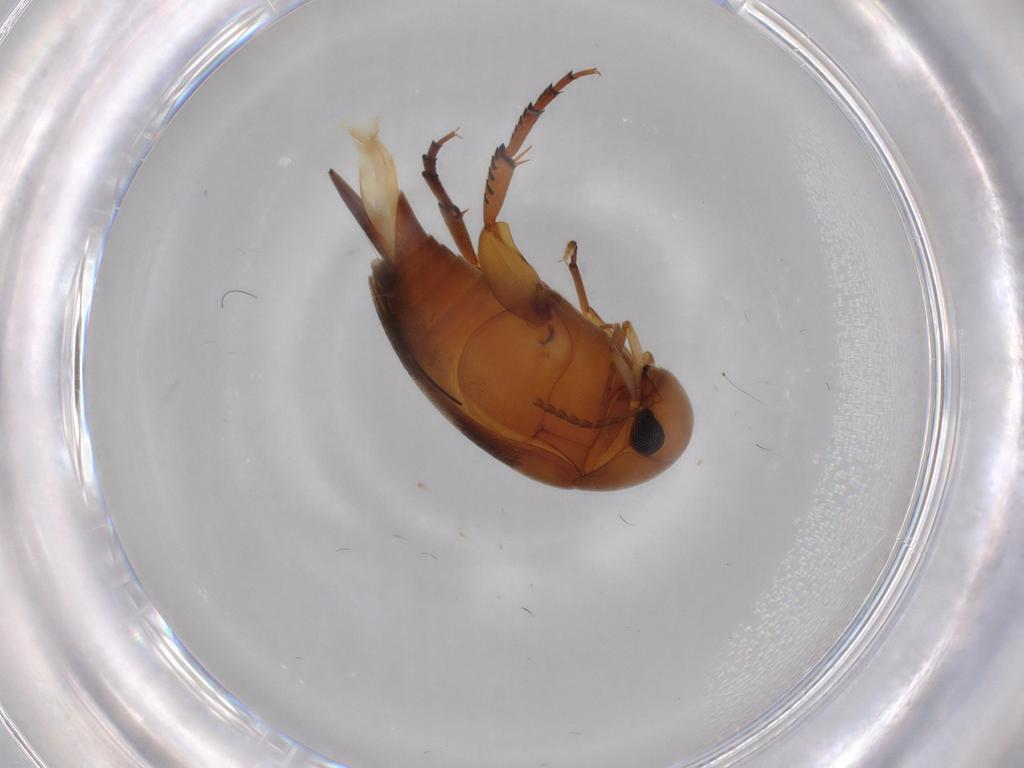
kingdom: Animalia
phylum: Arthropoda
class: Insecta
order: Coleoptera
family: Mordellidae
